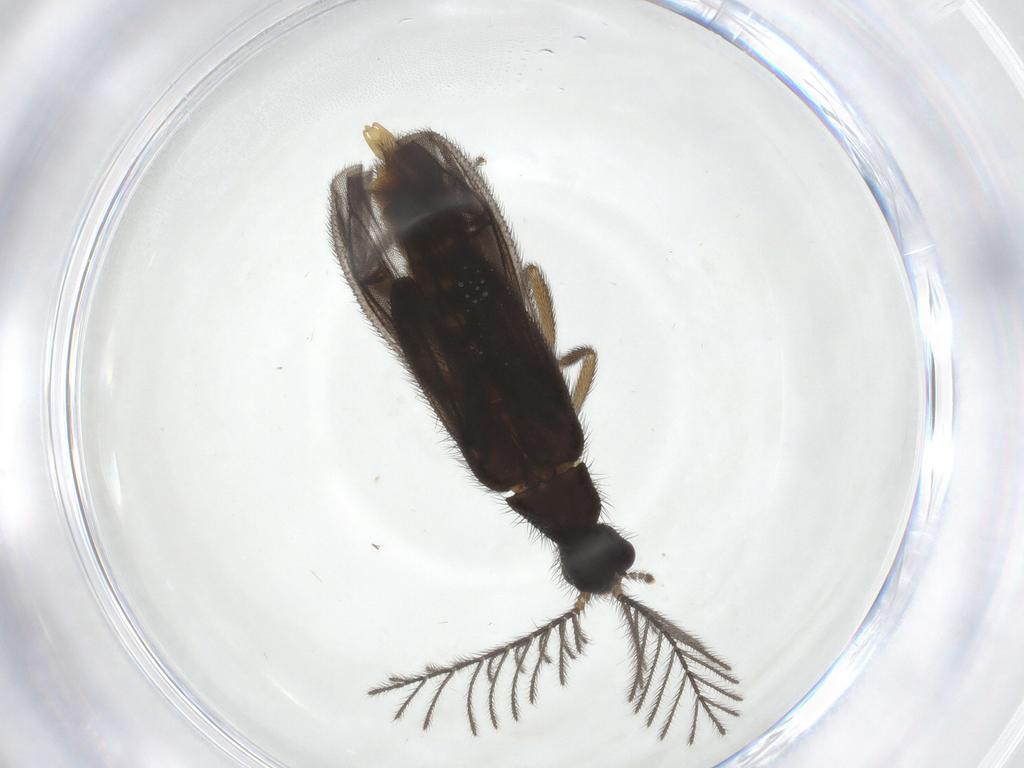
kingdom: Animalia
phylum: Arthropoda
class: Insecta
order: Coleoptera
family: Phengodidae
